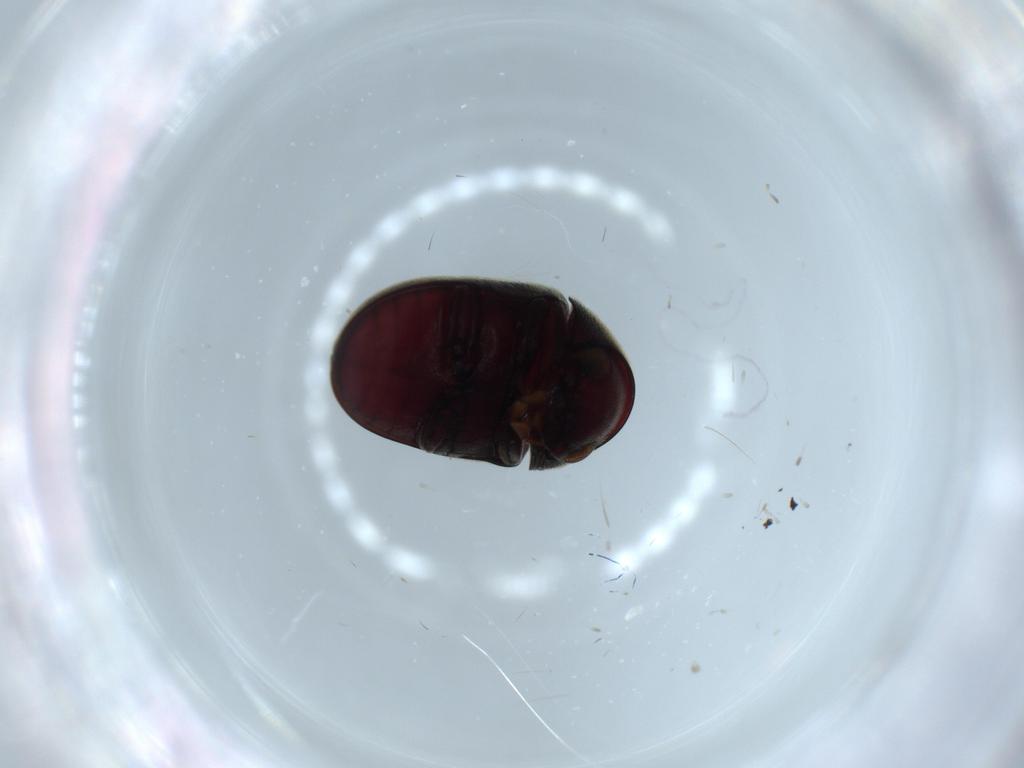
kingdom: Animalia
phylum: Arthropoda
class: Insecta
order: Coleoptera
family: Ptinidae
